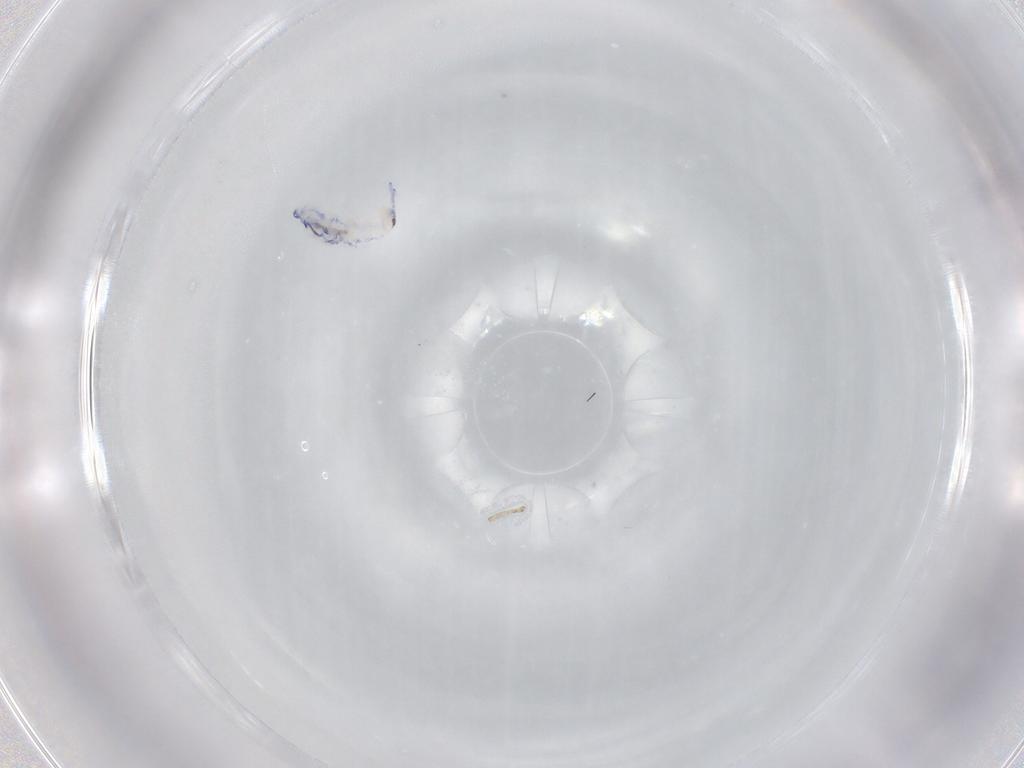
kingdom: Animalia
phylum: Arthropoda
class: Collembola
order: Entomobryomorpha
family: Entomobryidae
